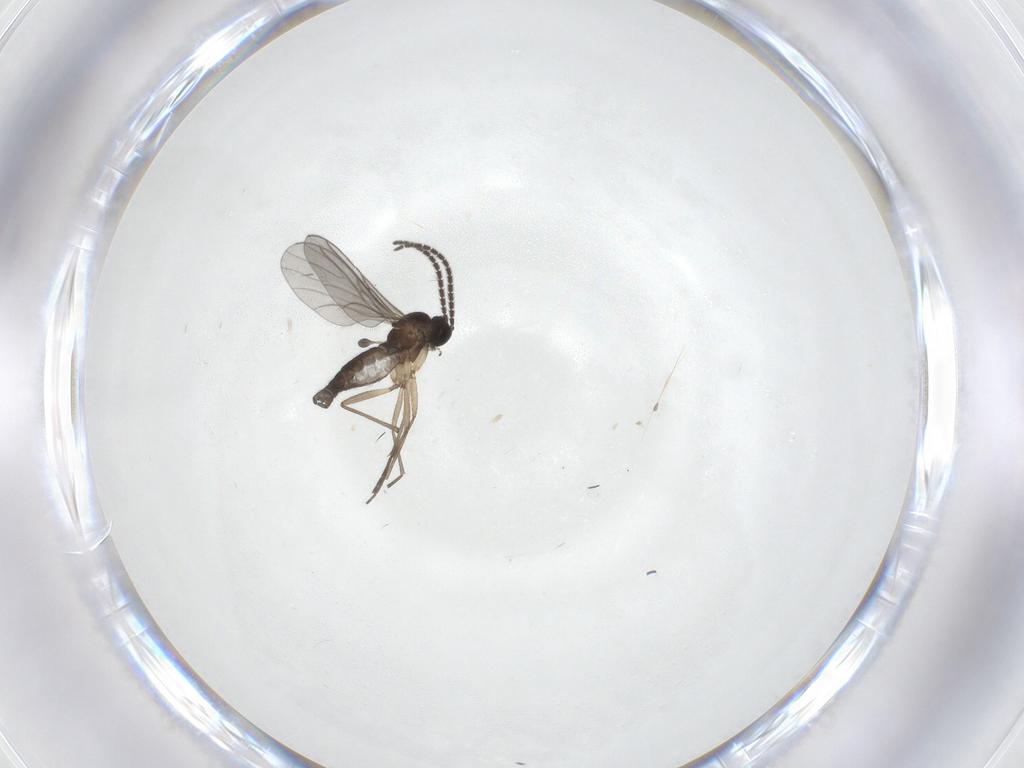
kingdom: Animalia
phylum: Arthropoda
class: Insecta
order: Diptera
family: Sciaridae
